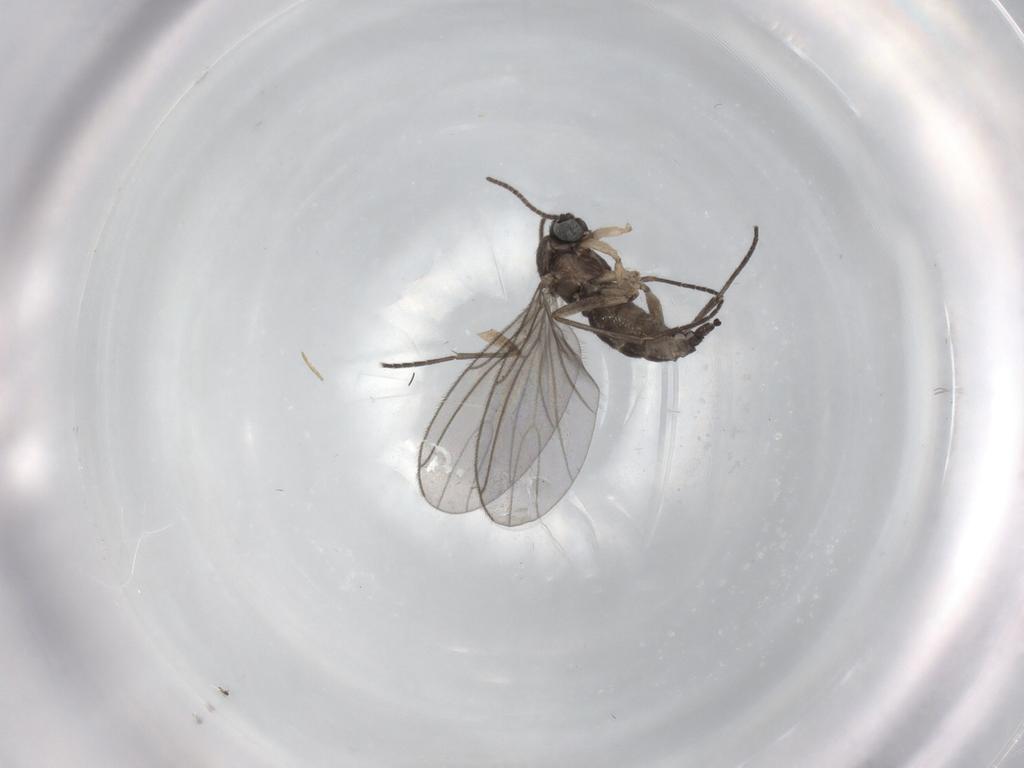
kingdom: Animalia
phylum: Arthropoda
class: Insecta
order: Diptera
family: Sciaridae
